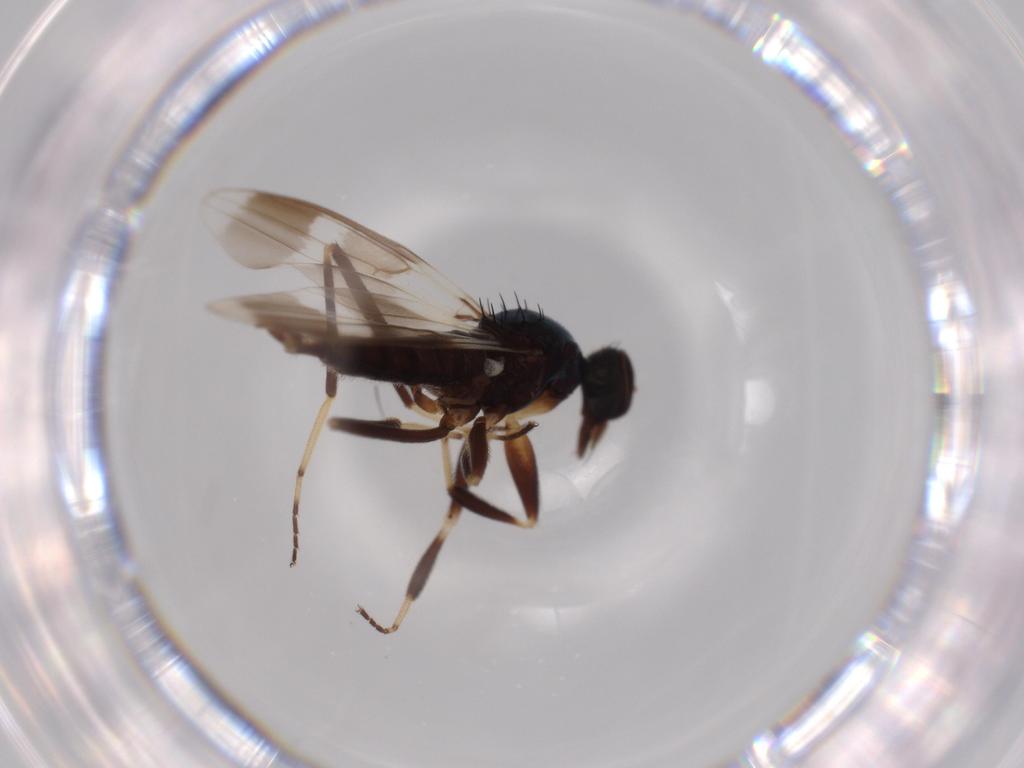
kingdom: Animalia
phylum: Arthropoda
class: Insecta
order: Diptera
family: Hybotidae
